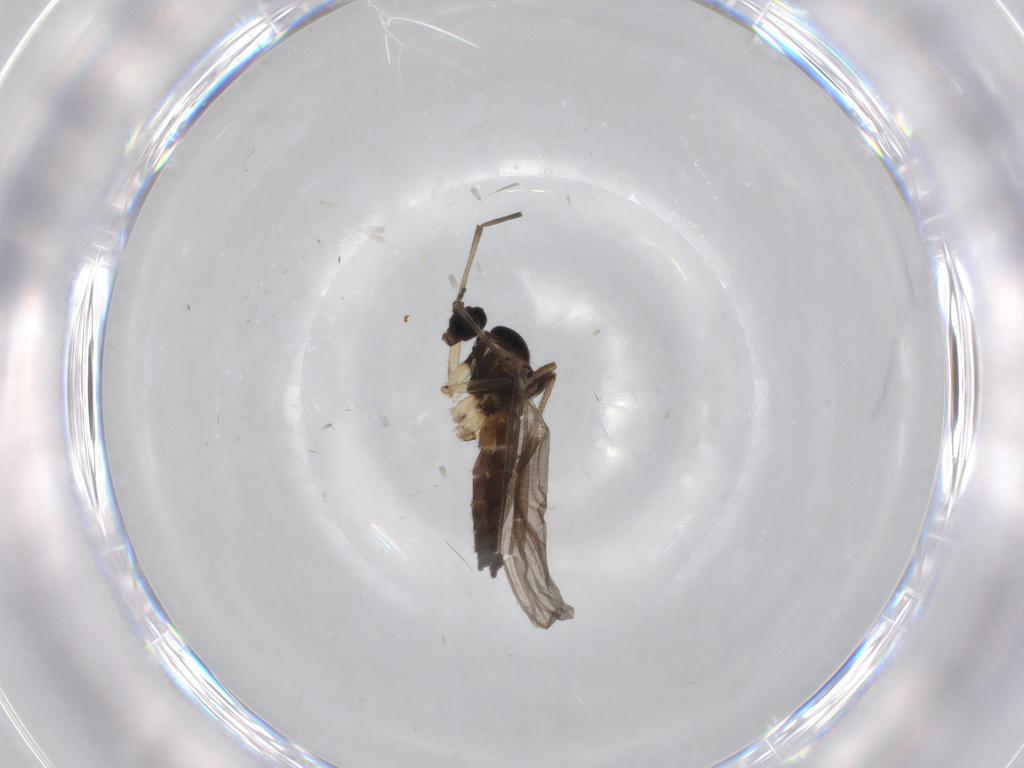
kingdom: Animalia
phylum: Arthropoda
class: Insecta
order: Diptera
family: Sciaridae
